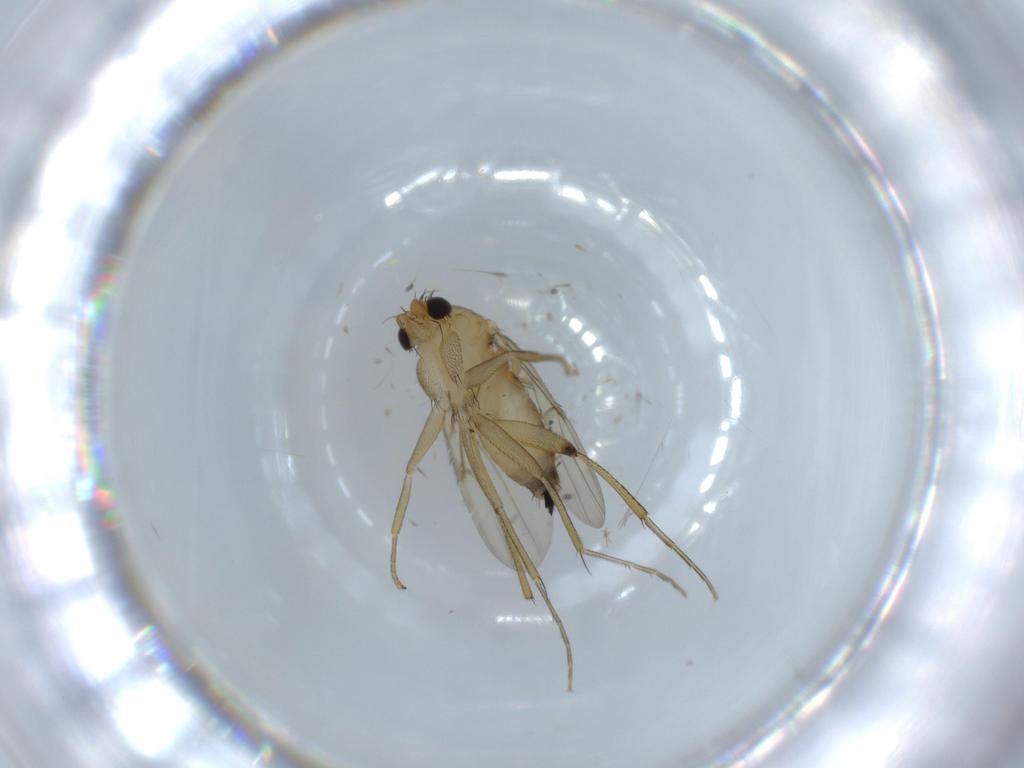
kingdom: Animalia
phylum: Arthropoda
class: Insecta
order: Diptera
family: Phoridae
